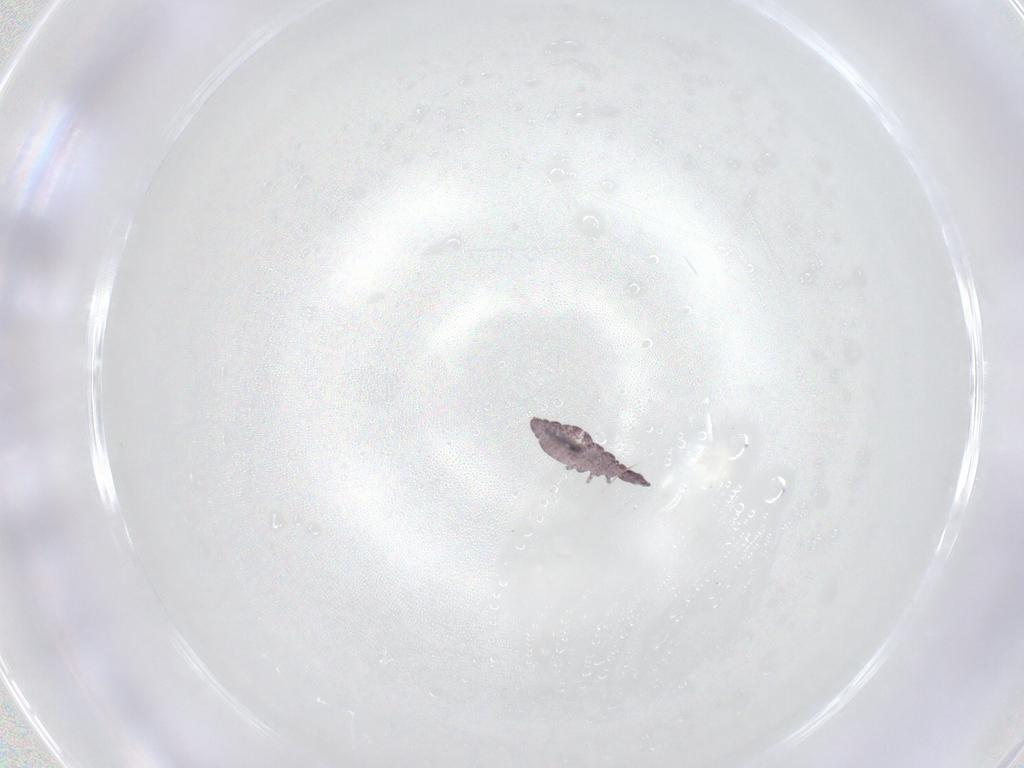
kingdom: Animalia
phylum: Arthropoda
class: Collembola
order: Poduromorpha
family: Hypogastruridae
